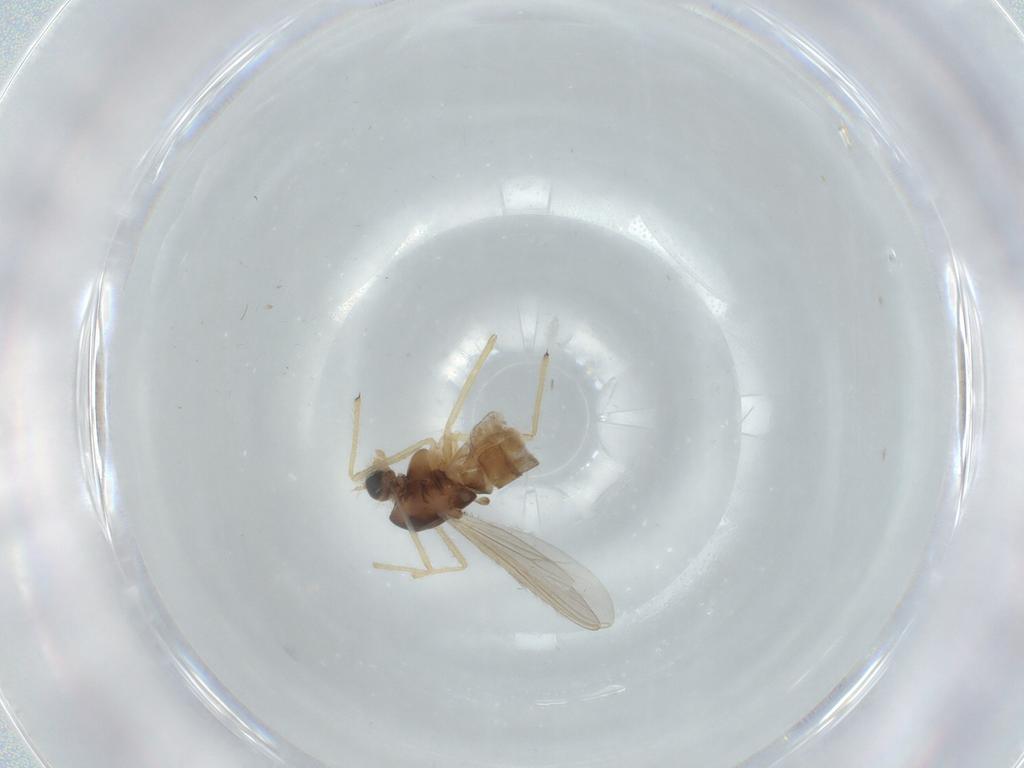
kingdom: Animalia
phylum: Arthropoda
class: Insecta
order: Diptera
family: Chironomidae
